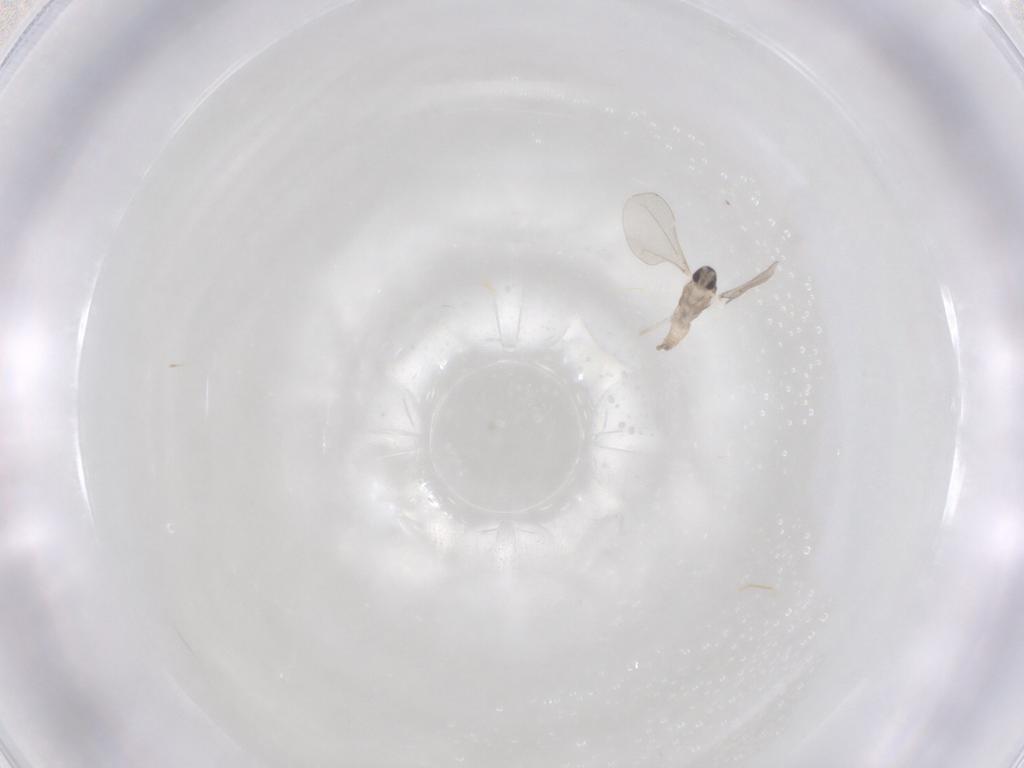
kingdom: Animalia
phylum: Arthropoda
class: Insecta
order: Diptera
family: Cecidomyiidae
